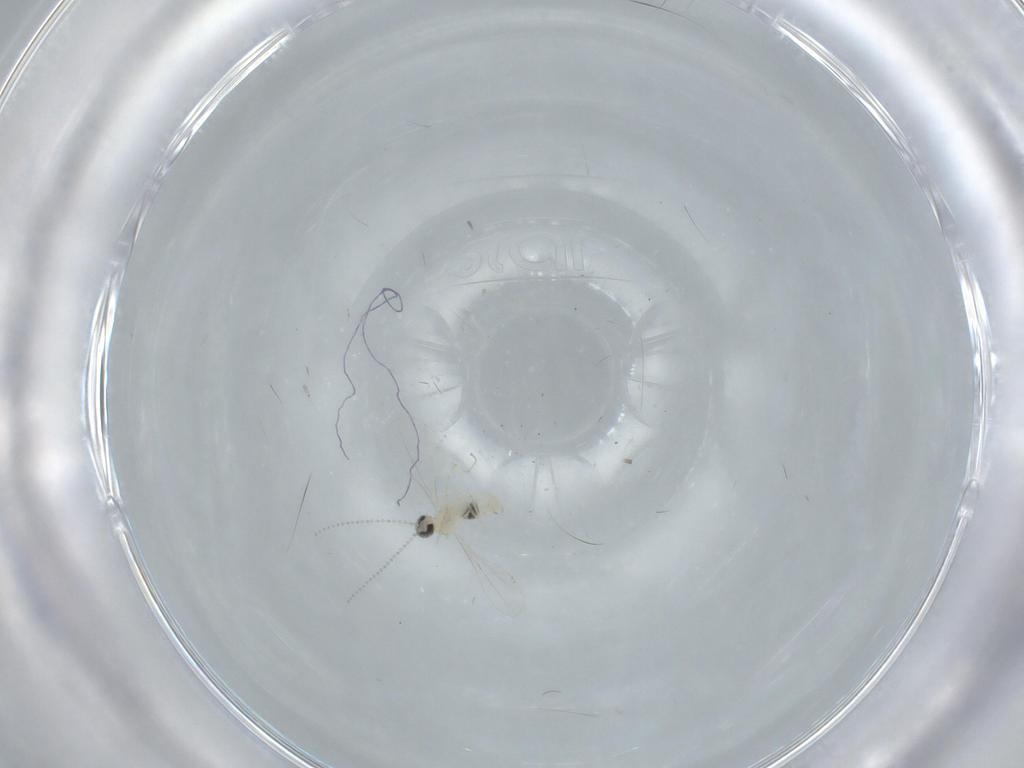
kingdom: Animalia
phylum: Arthropoda
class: Insecta
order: Diptera
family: Cecidomyiidae
